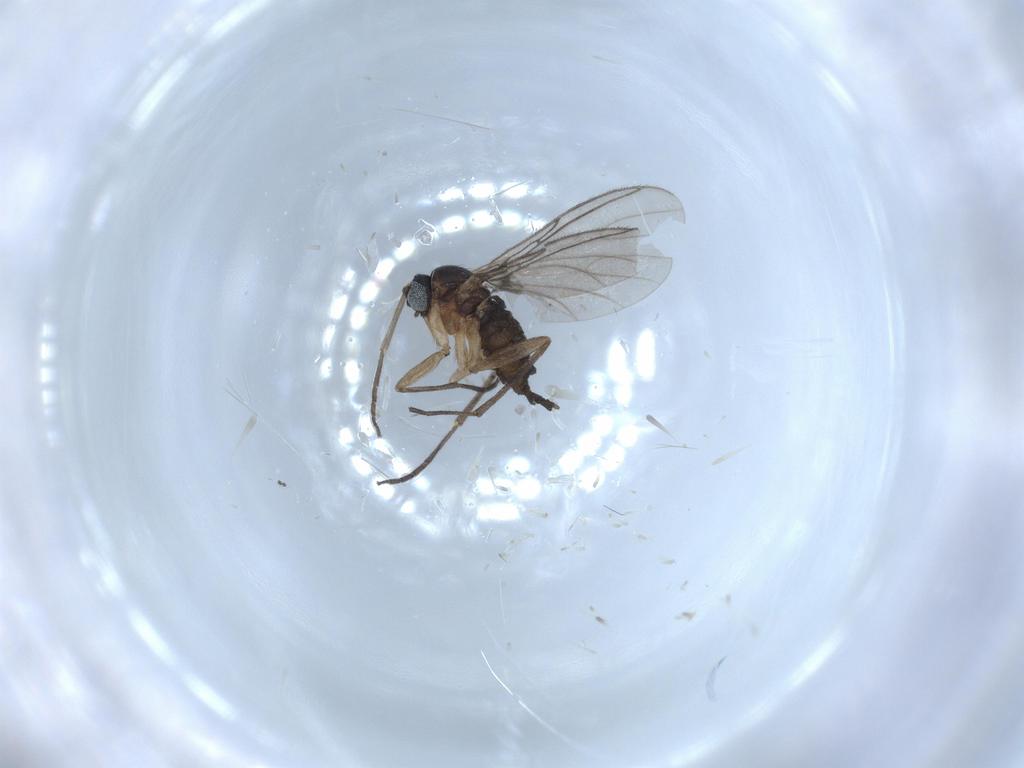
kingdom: Animalia
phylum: Arthropoda
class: Insecta
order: Diptera
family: Sciaridae
